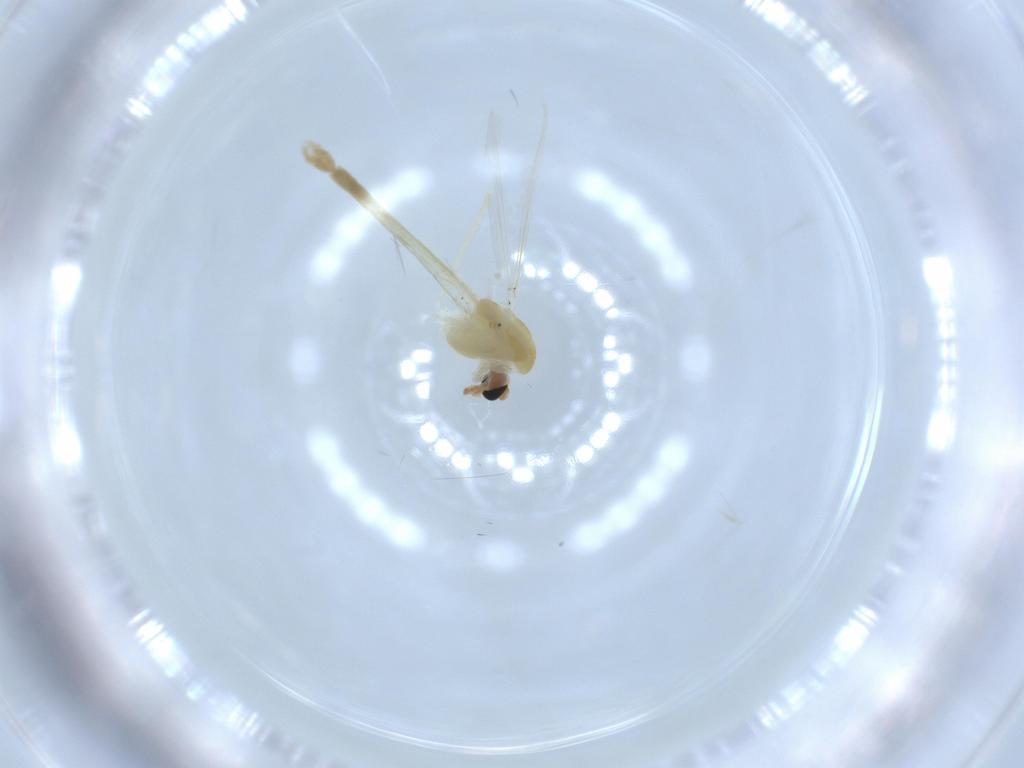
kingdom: Animalia
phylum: Arthropoda
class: Insecta
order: Diptera
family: Chironomidae
